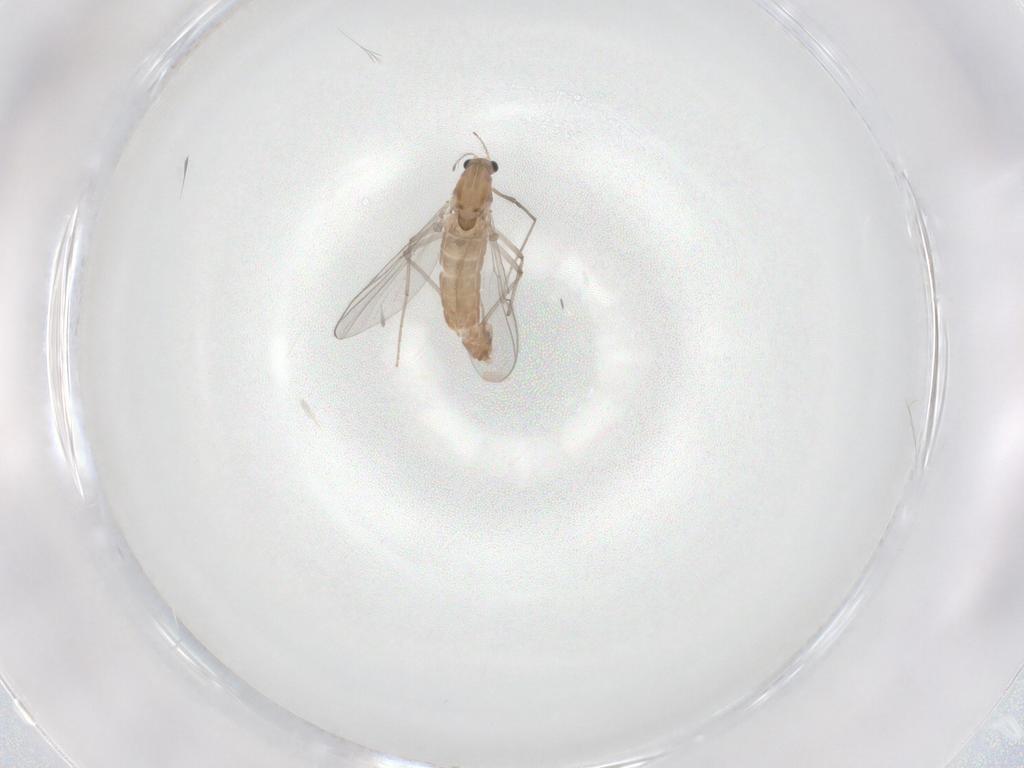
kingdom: Animalia
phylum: Arthropoda
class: Insecta
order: Diptera
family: Chironomidae
